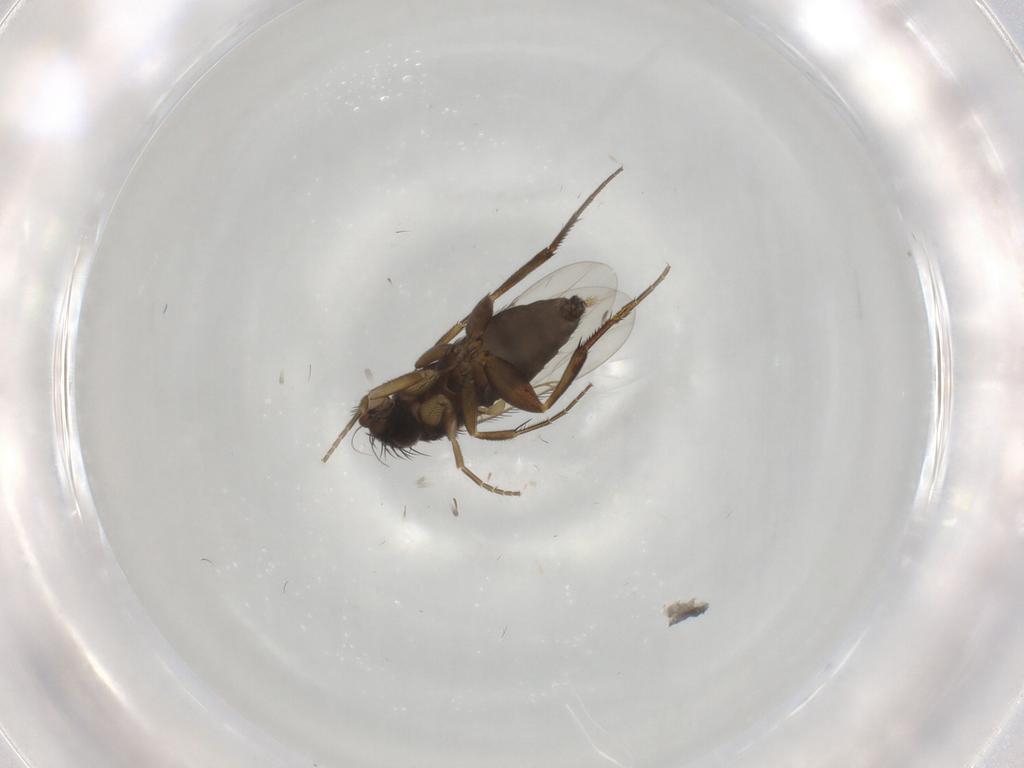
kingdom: Animalia
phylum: Arthropoda
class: Insecta
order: Diptera
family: Phoridae
